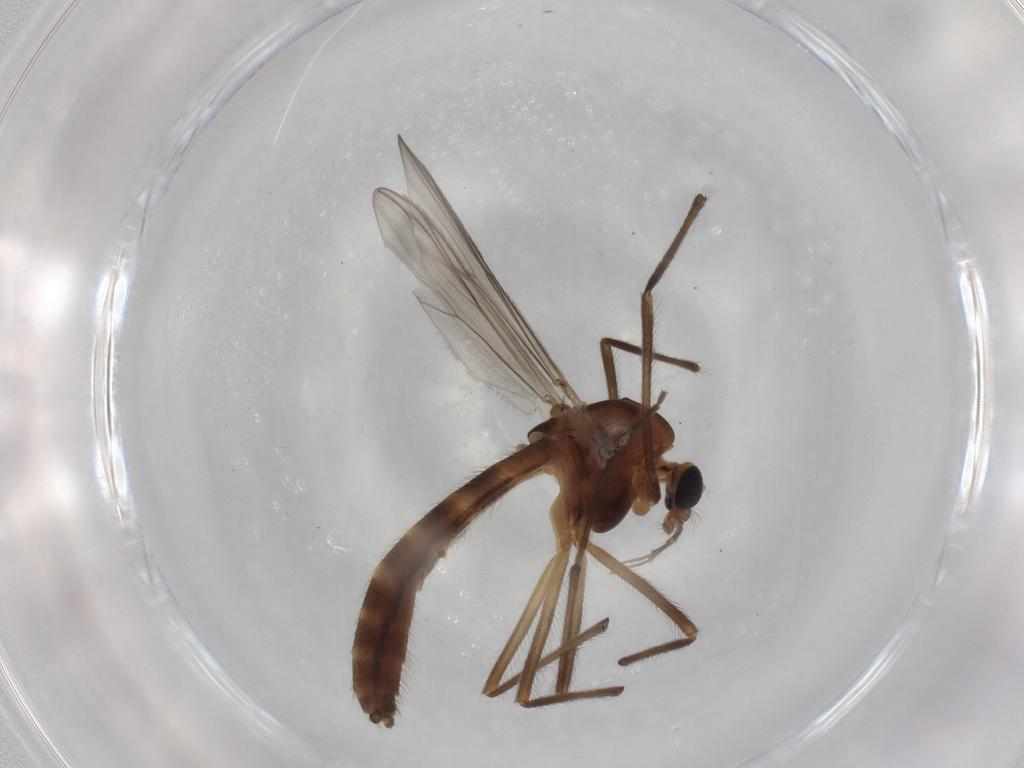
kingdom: Animalia
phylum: Arthropoda
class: Insecta
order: Diptera
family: Chironomidae
